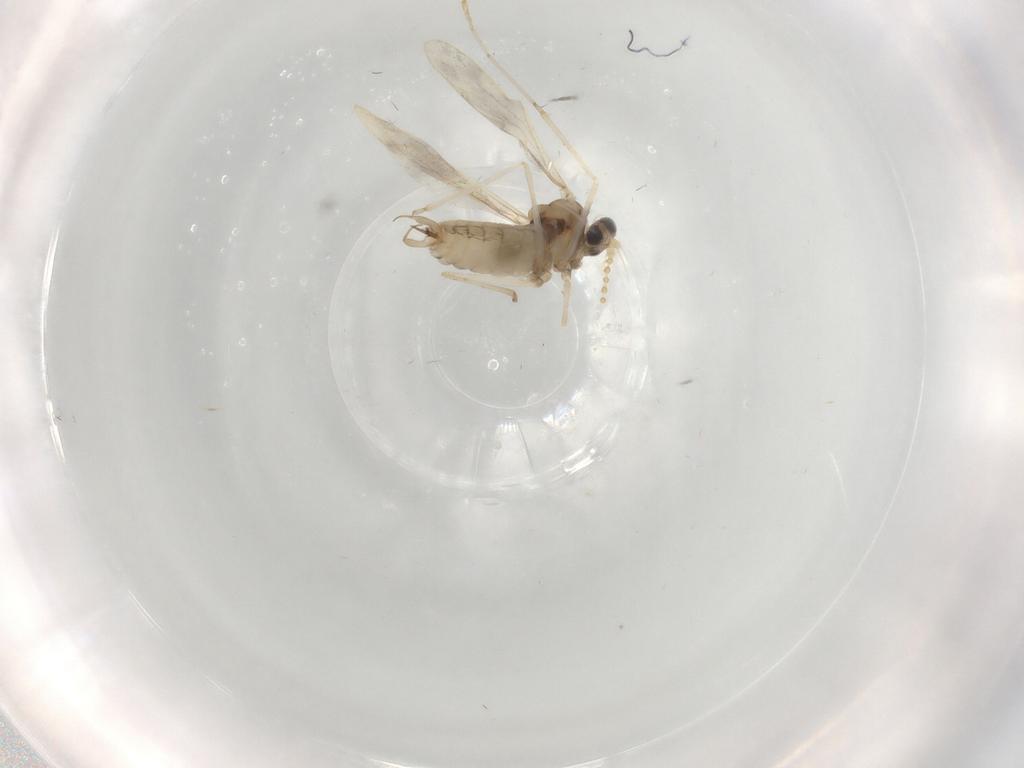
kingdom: Animalia
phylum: Arthropoda
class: Insecta
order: Diptera
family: Cecidomyiidae
